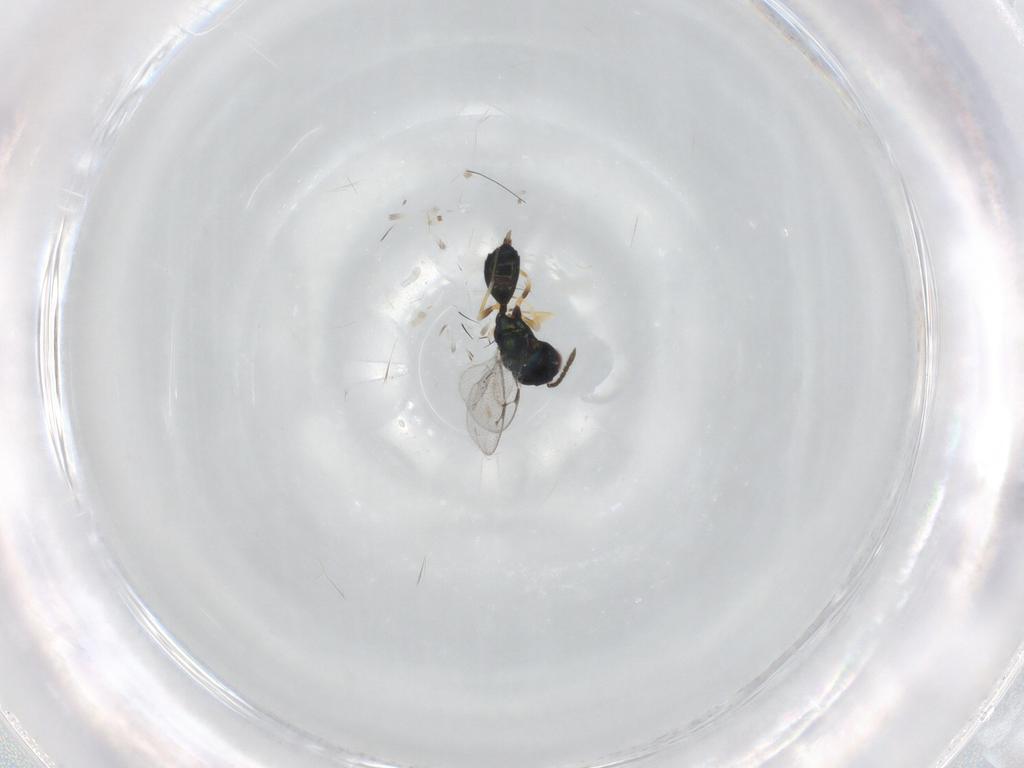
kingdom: Animalia
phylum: Arthropoda
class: Insecta
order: Hymenoptera
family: Pteromalidae
